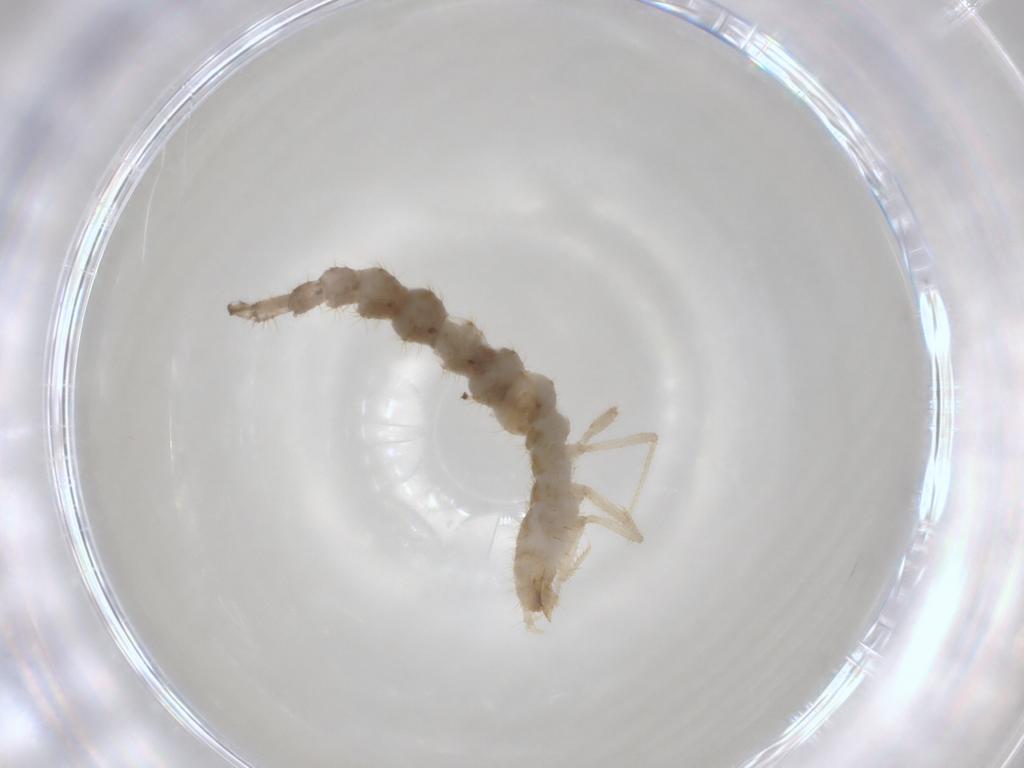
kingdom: Animalia
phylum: Arthropoda
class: Insecta
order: Coleoptera
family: Staphylinidae
